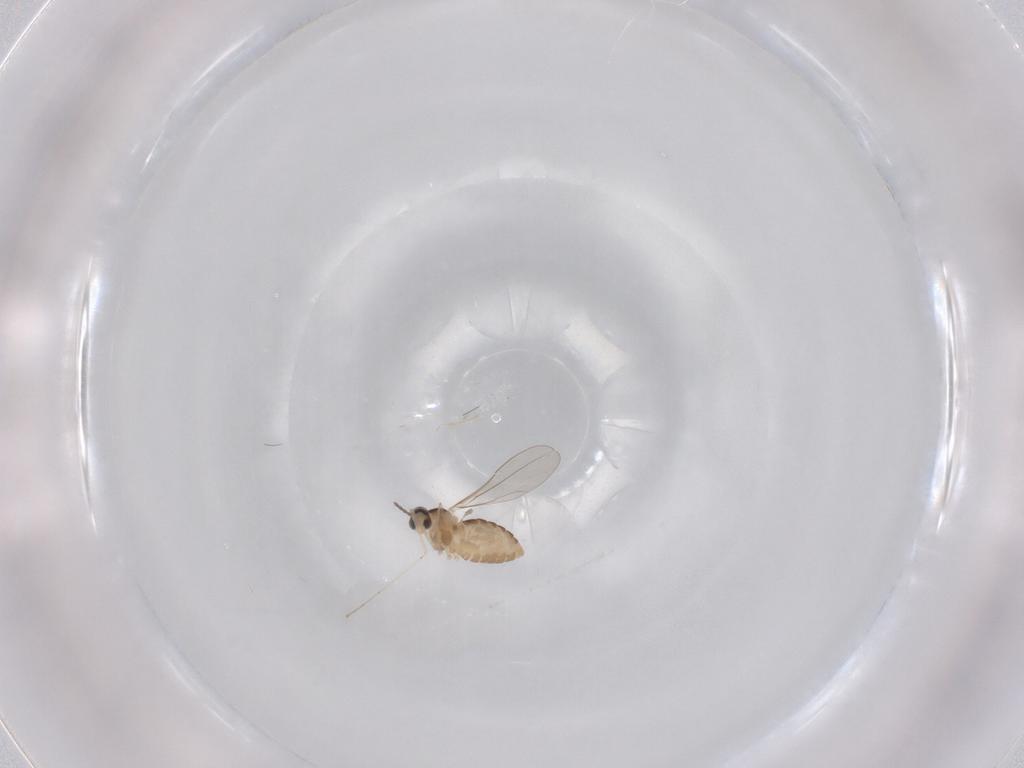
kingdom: Animalia
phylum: Arthropoda
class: Insecta
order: Diptera
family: Cecidomyiidae
